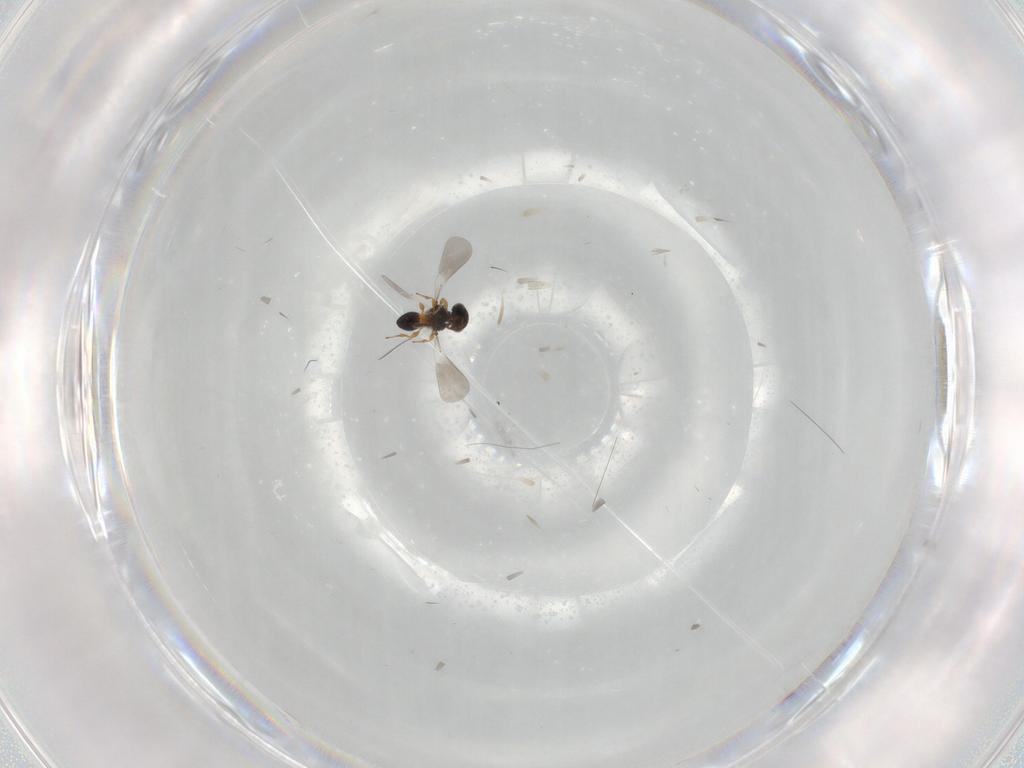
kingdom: Animalia
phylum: Arthropoda
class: Insecta
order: Hymenoptera
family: Platygastridae
